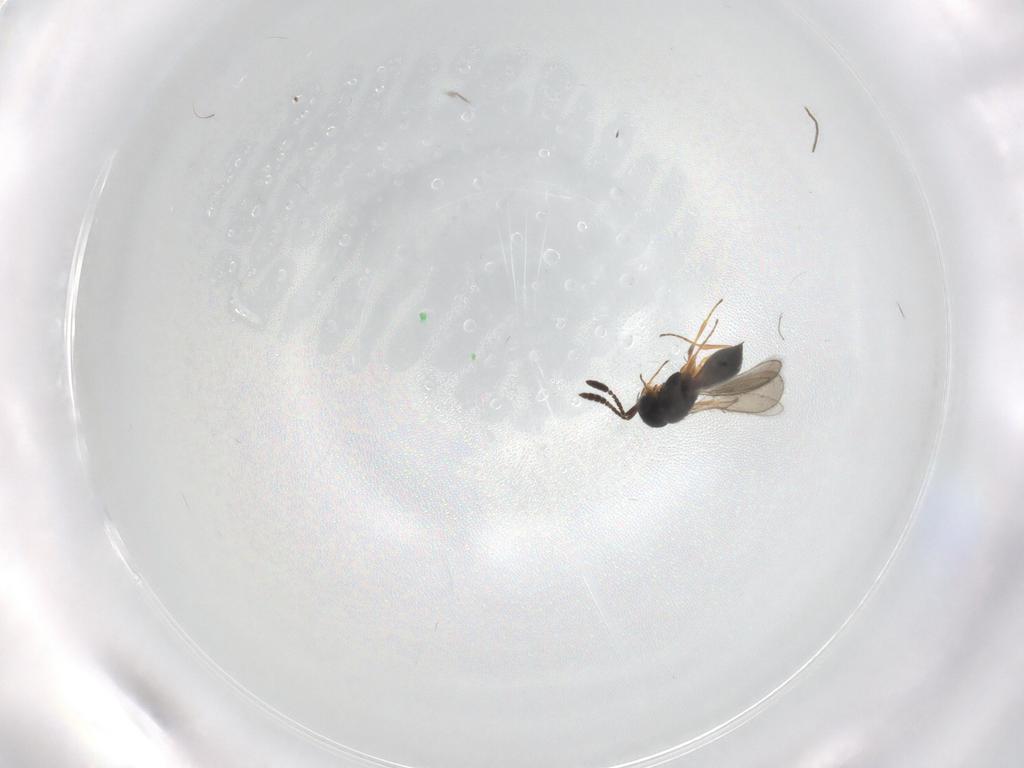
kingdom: Animalia
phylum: Arthropoda
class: Insecta
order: Hymenoptera
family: Scelionidae
